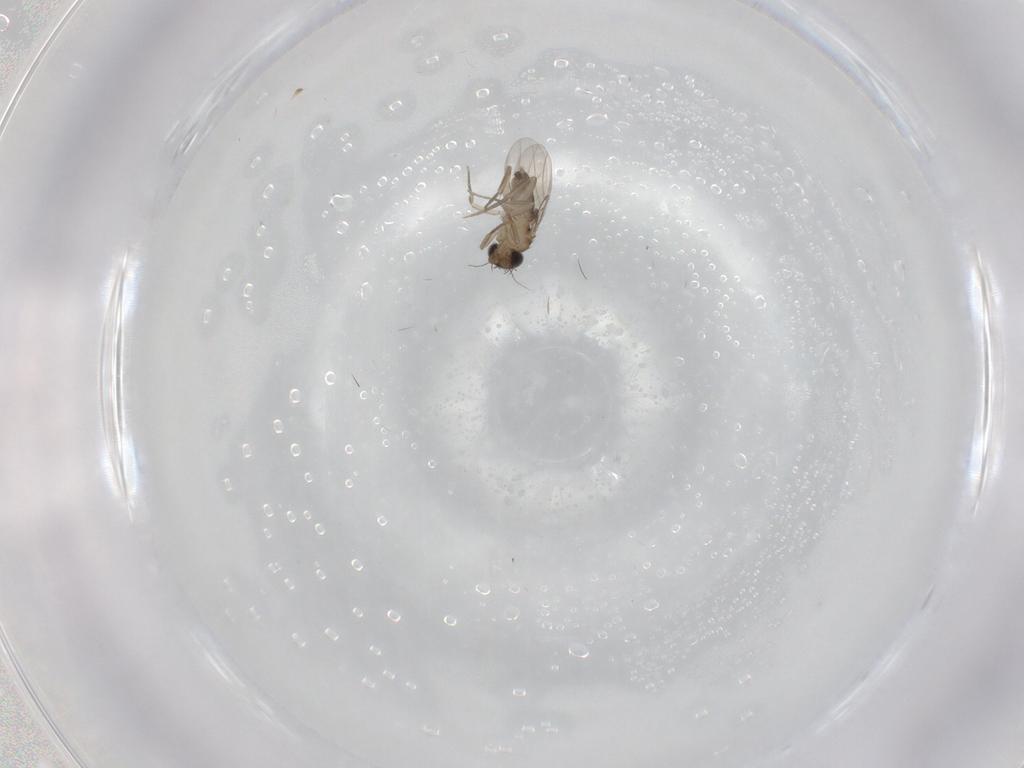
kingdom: Animalia
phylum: Arthropoda
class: Insecta
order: Diptera
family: Phoridae
